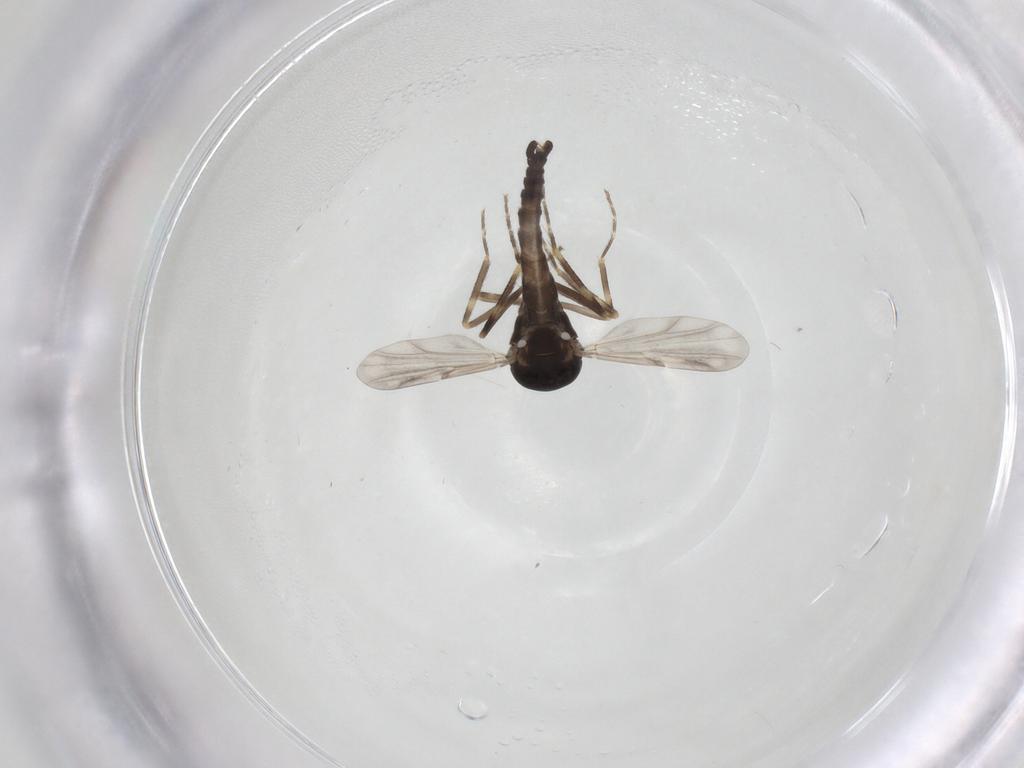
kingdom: Animalia
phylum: Arthropoda
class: Insecta
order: Diptera
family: Ceratopogonidae
